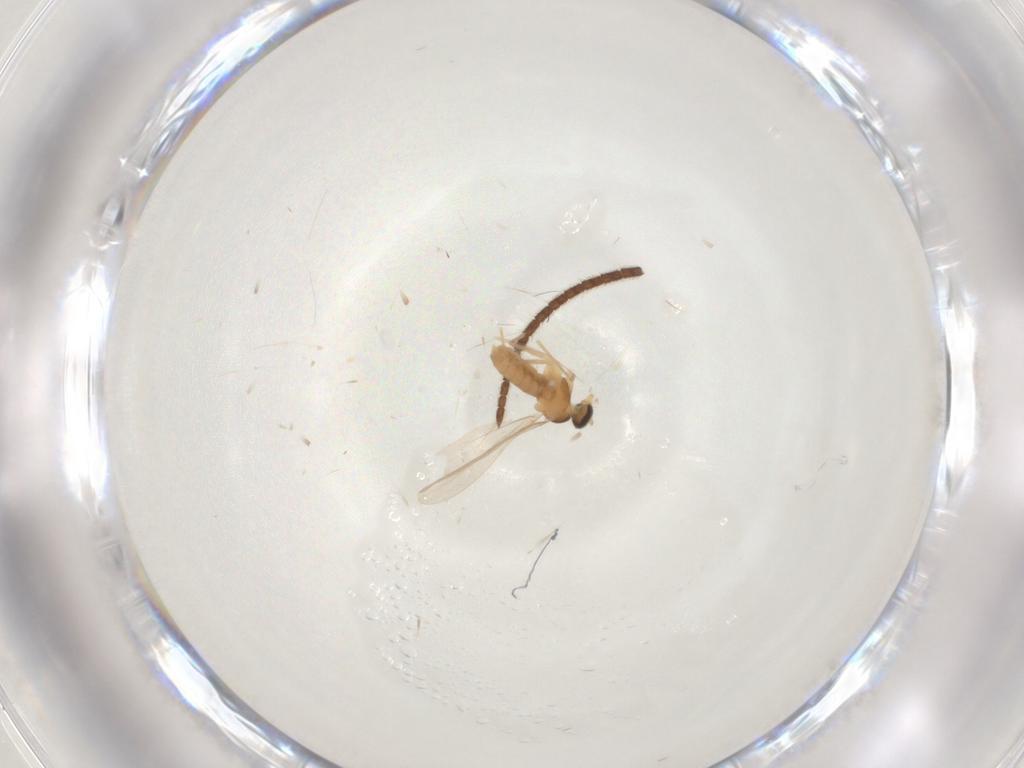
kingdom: Animalia
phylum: Arthropoda
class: Insecta
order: Diptera
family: Cecidomyiidae
